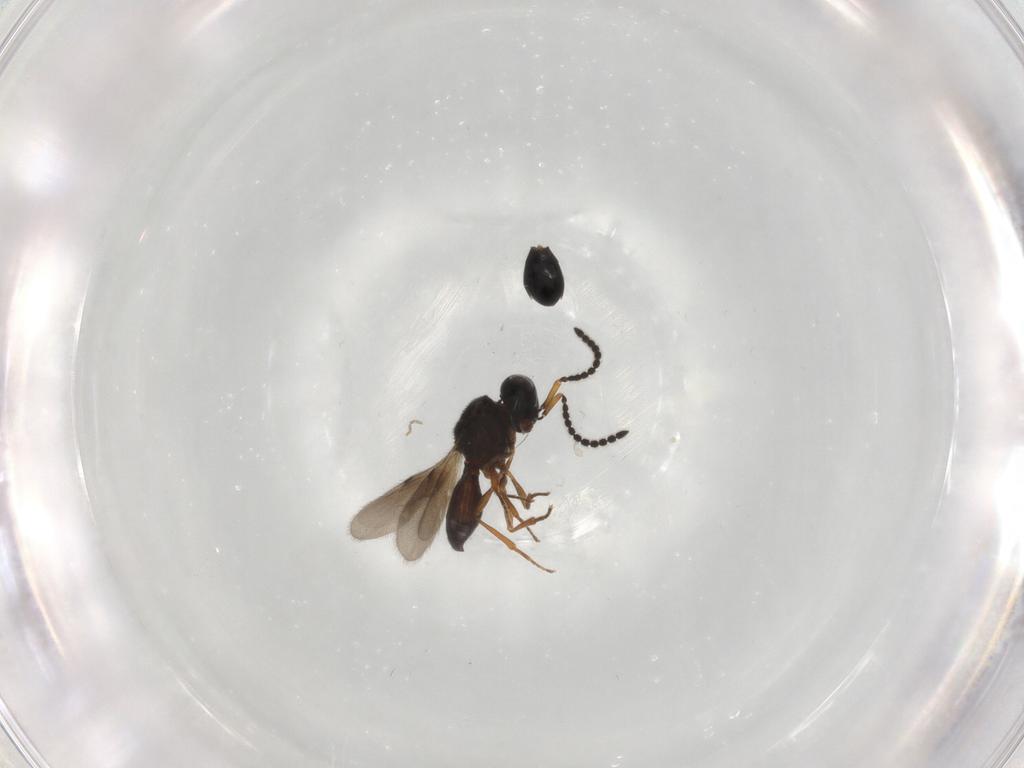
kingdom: Animalia
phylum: Arthropoda
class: Insecta
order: Hymenoptera
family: Scelionidae
